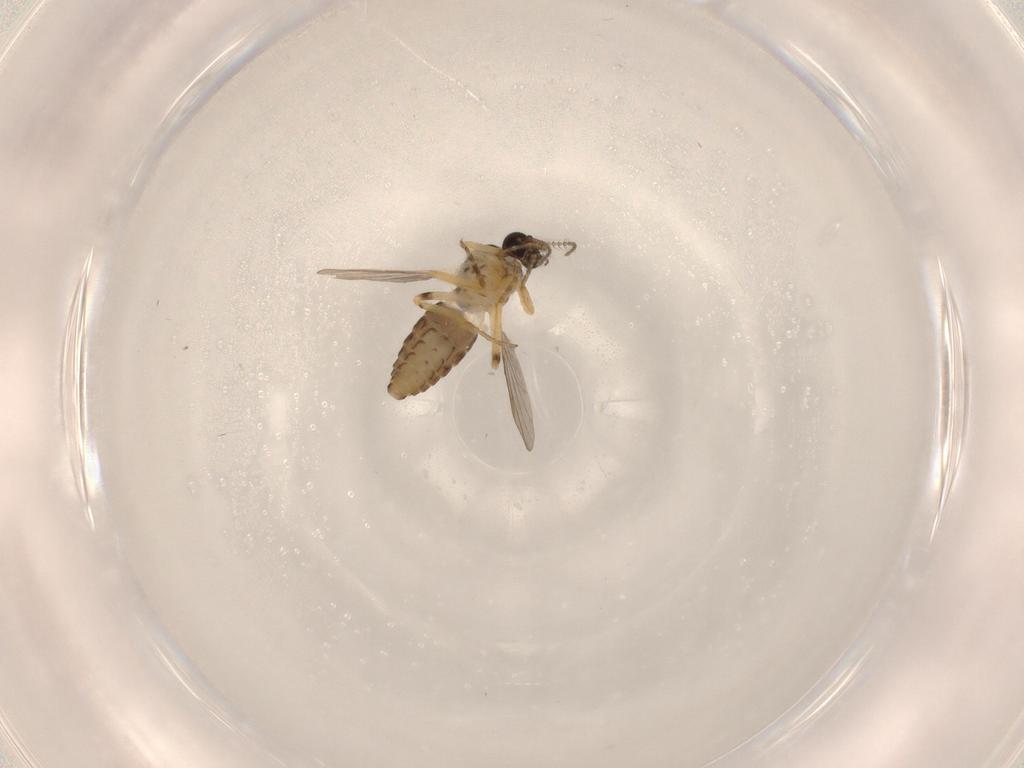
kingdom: Animalia
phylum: Arthropoda
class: Insecta
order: Diptera
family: Ceratopogonidae
